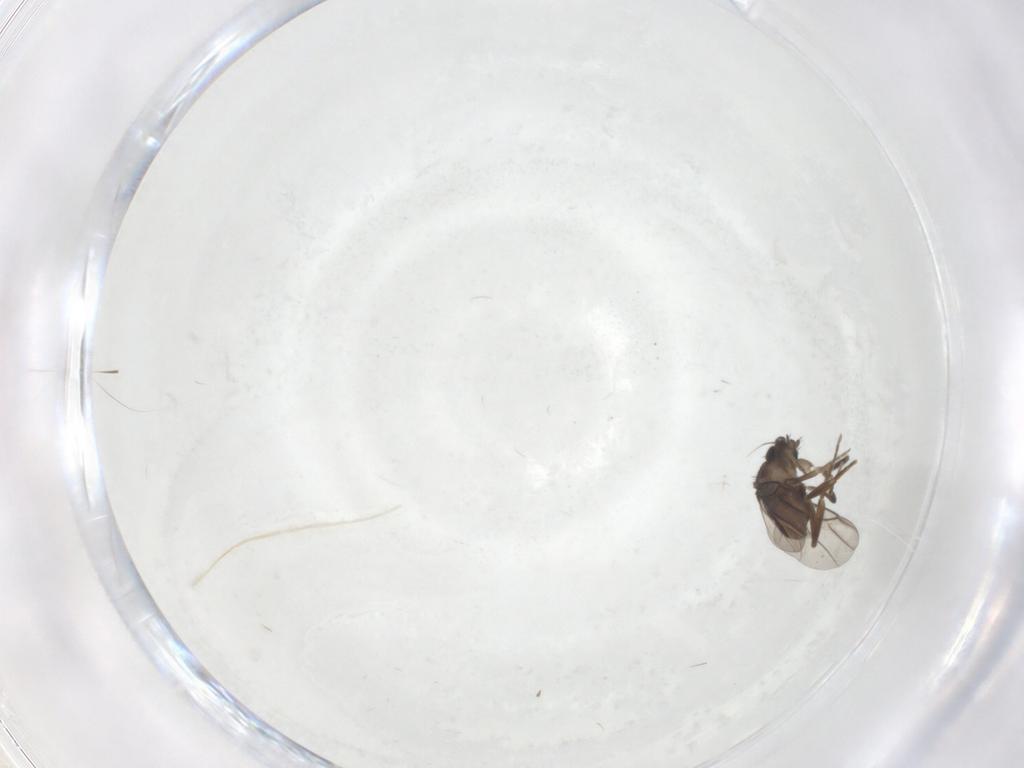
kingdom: Animalia
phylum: Arthropoda
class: Insecta
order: Diptera
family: Phoridae
